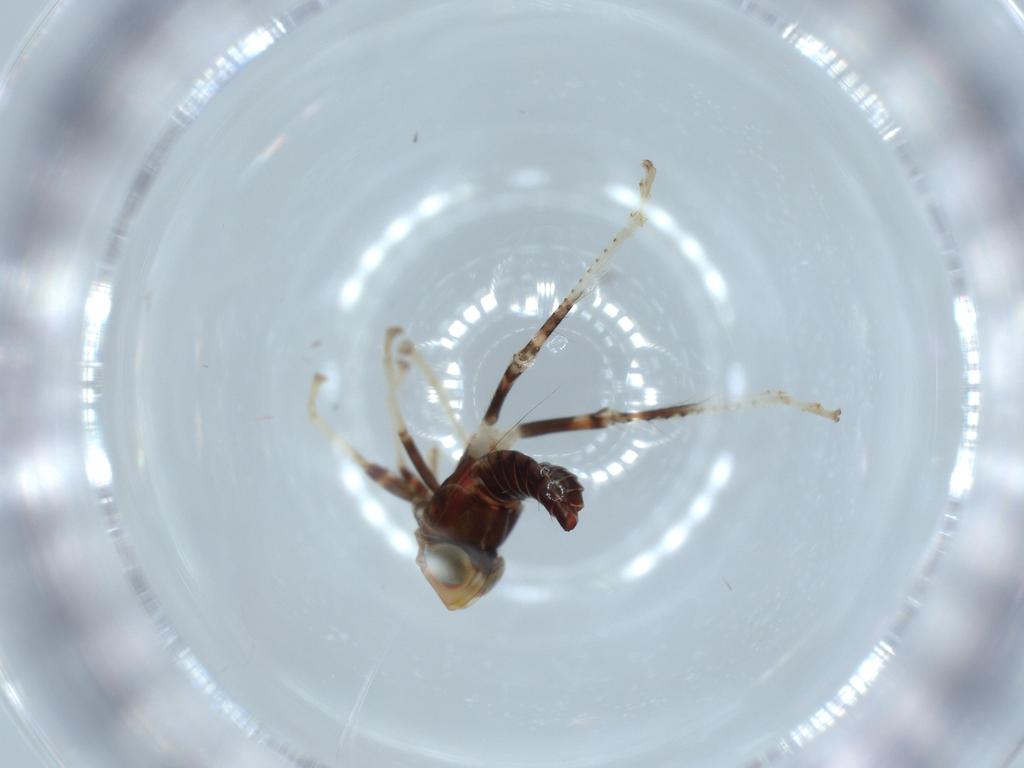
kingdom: Animalia
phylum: Arthropoda
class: Insecta
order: Hemiptera
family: Cicadellidae
